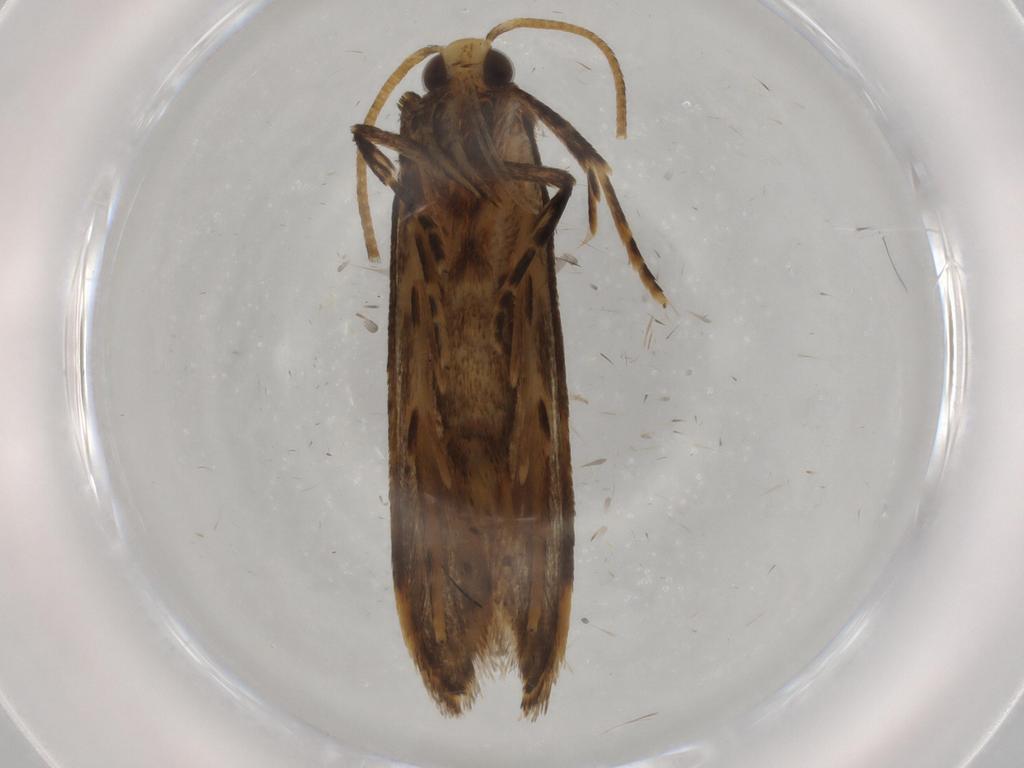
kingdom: Animalia
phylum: Arthropoda
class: Insecta
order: Lepidoptera
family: Autostichidae
